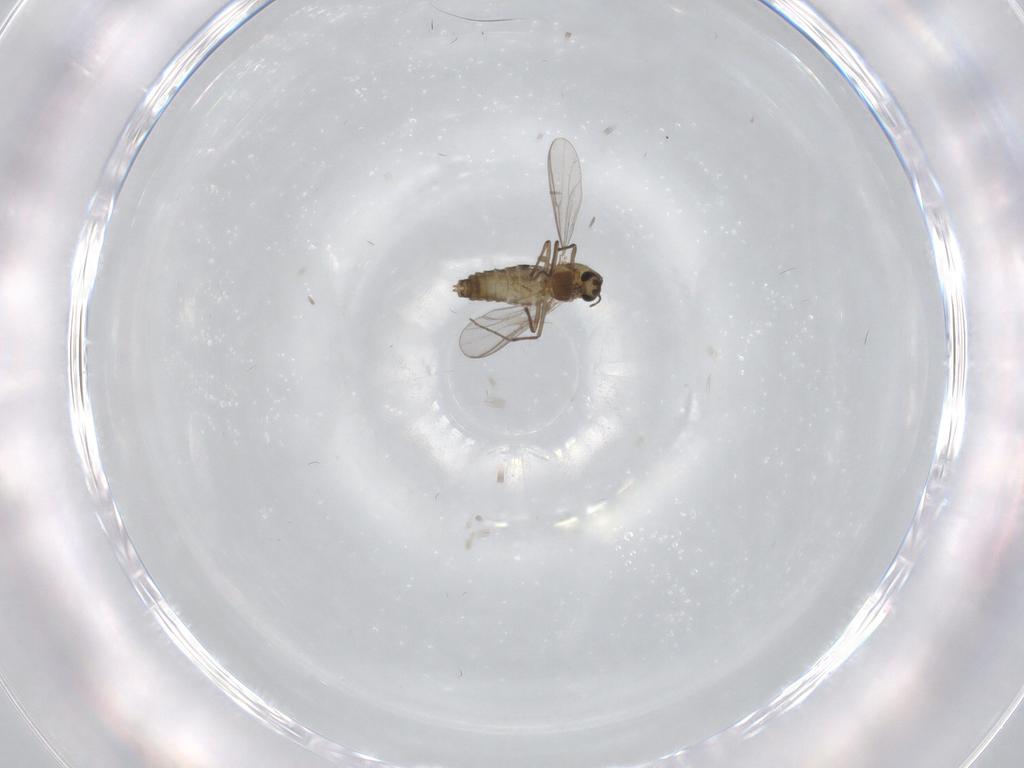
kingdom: Animalia
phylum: Arthropoda
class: Insecta
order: Diptera
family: Chironomidae
